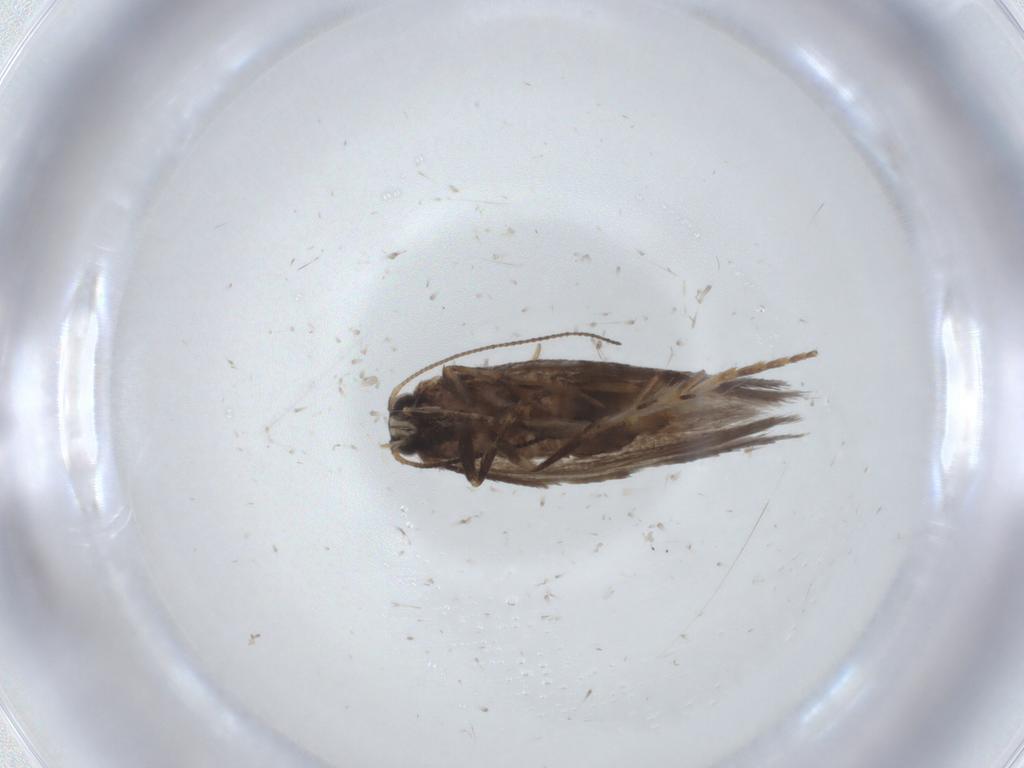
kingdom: Animalia
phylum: Arthropoda
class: Insecta
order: Lepidoptera
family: Nepticulidae
